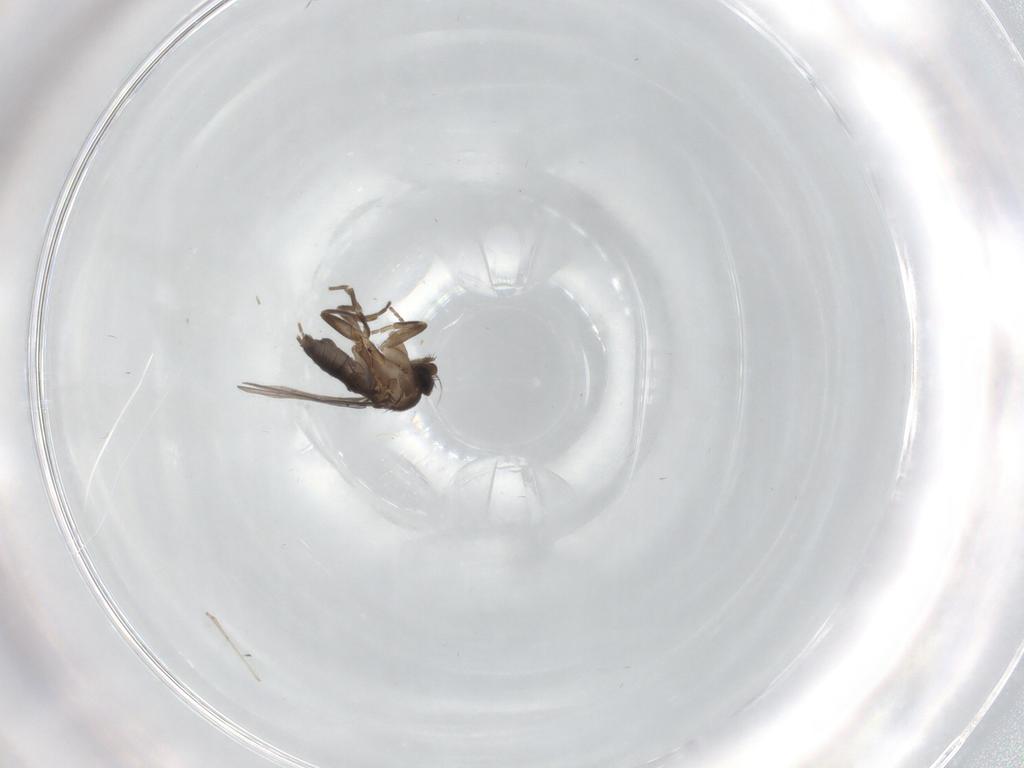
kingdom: Animalia
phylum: Arthropoda
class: Insecta
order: Diptera
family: Phoridae
